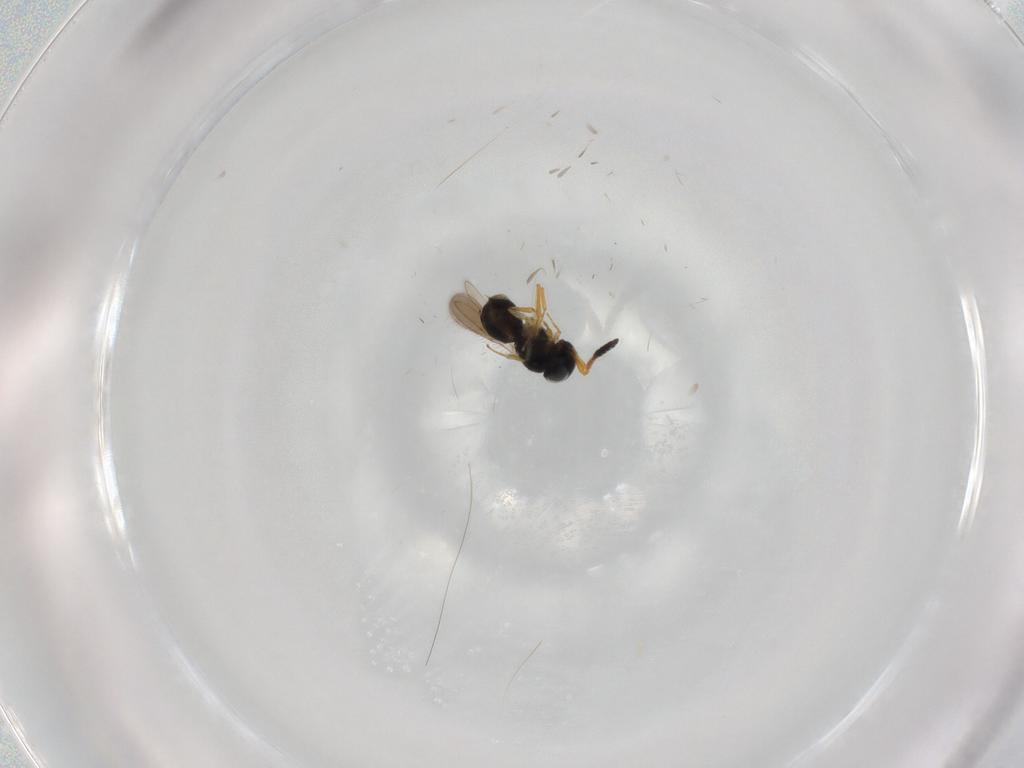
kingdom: Animalia
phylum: Arthropoda
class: Insecta
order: Hymenoptera
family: Scelionidae
